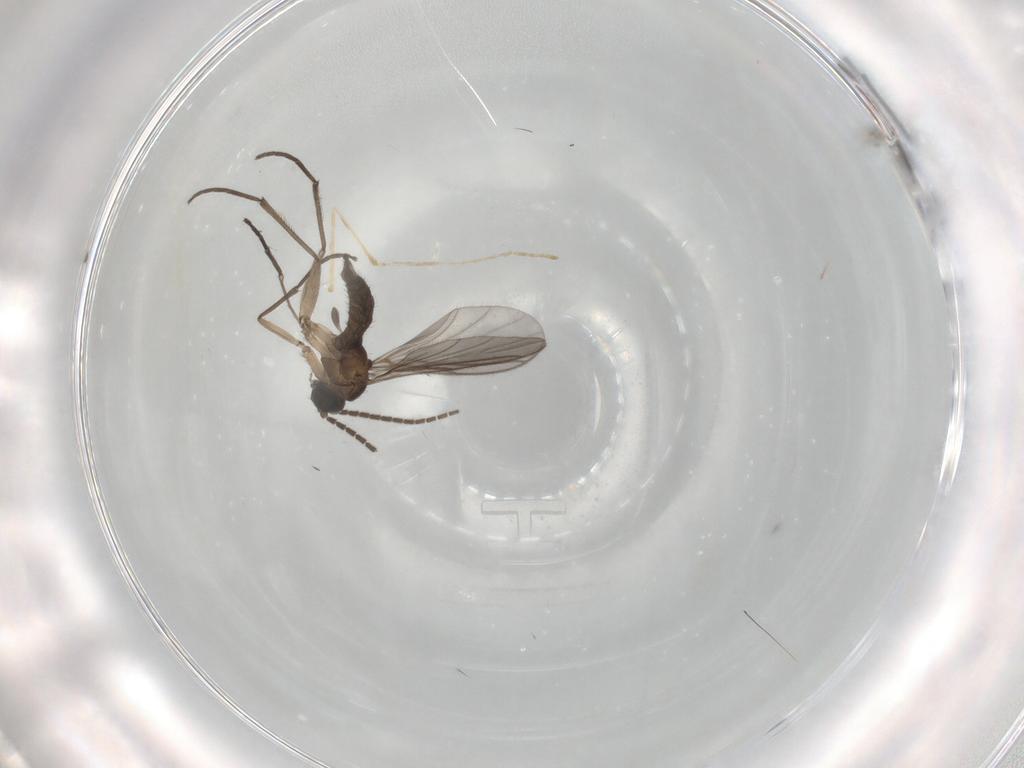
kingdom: Animalia
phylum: Arthropoda
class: Insecta
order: Diptera
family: Sciaridae
